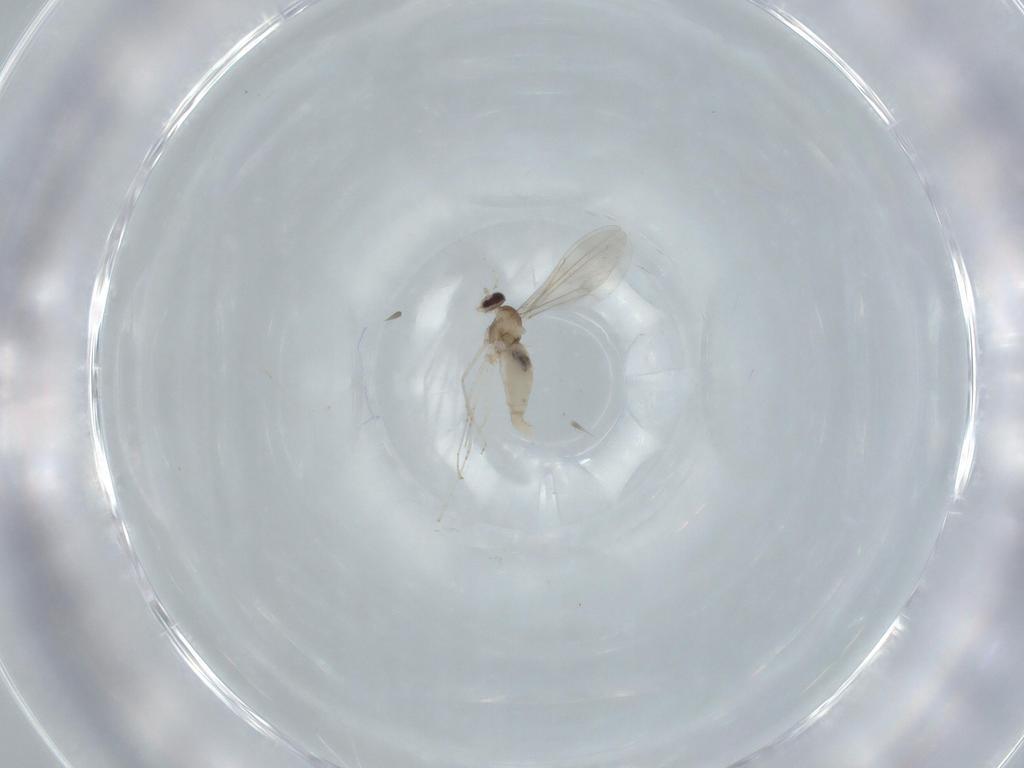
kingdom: Animalia
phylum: Arthropoda
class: Insecta
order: Diptera
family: Cecidomyiidae
